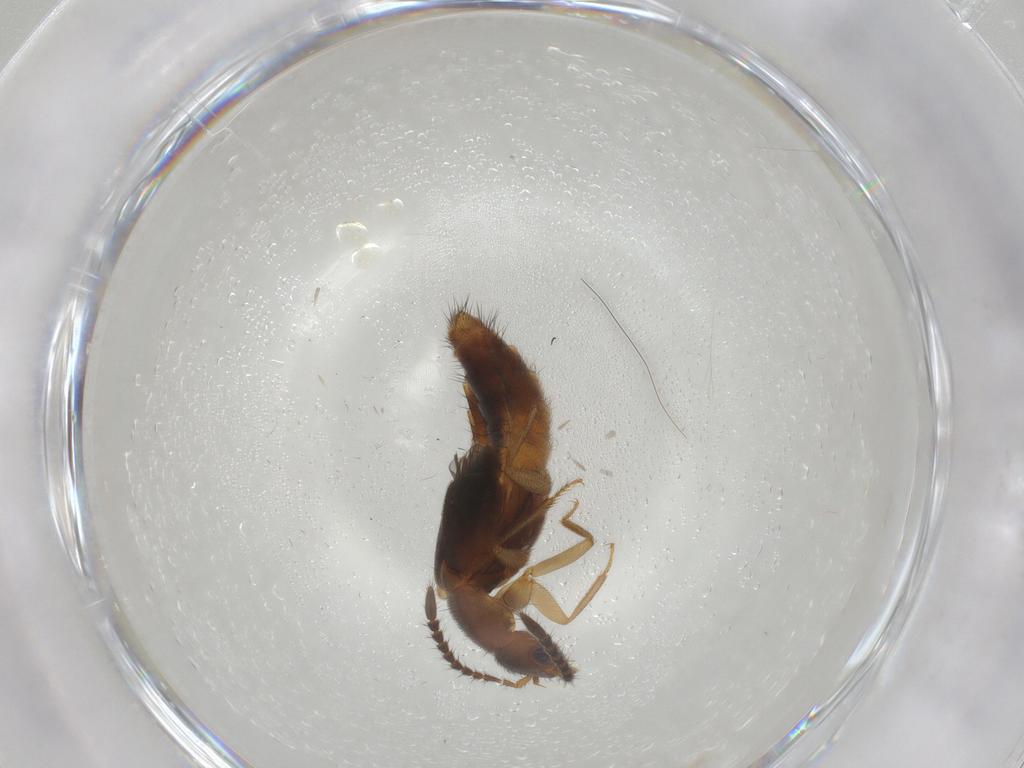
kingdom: Animalia
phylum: Arthropoda
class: Insecta
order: Coleoptera
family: Staphylinidae
